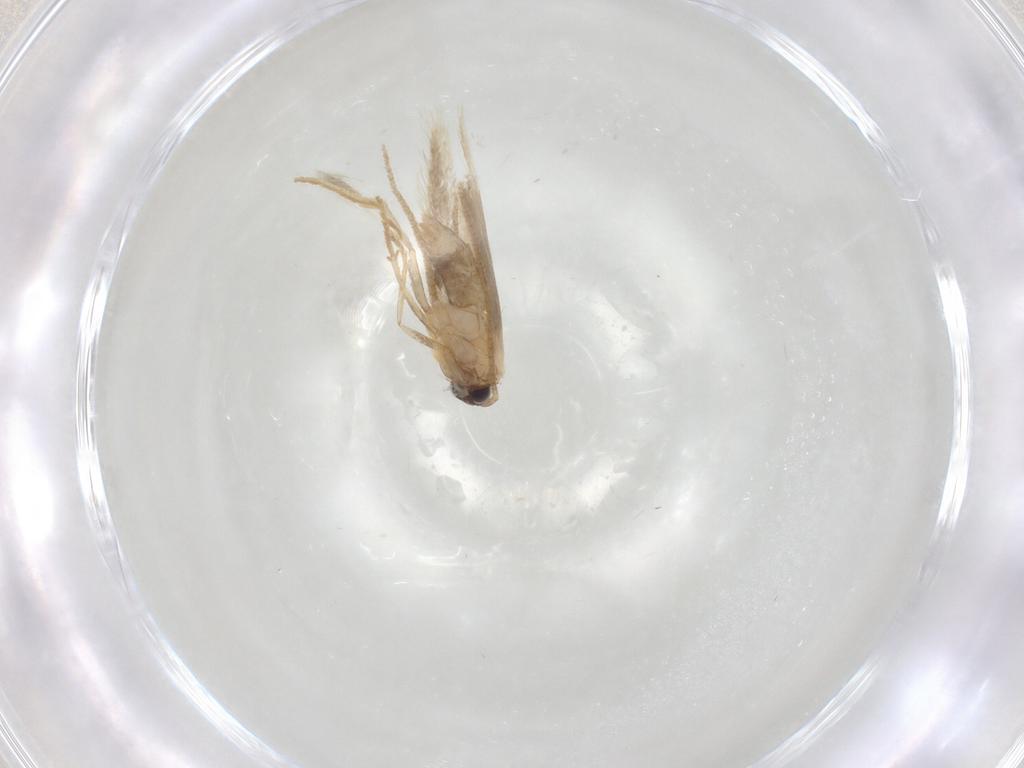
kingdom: Animalia
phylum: Arthropoda
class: Insecta
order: Lepidoptera
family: Tineidae
